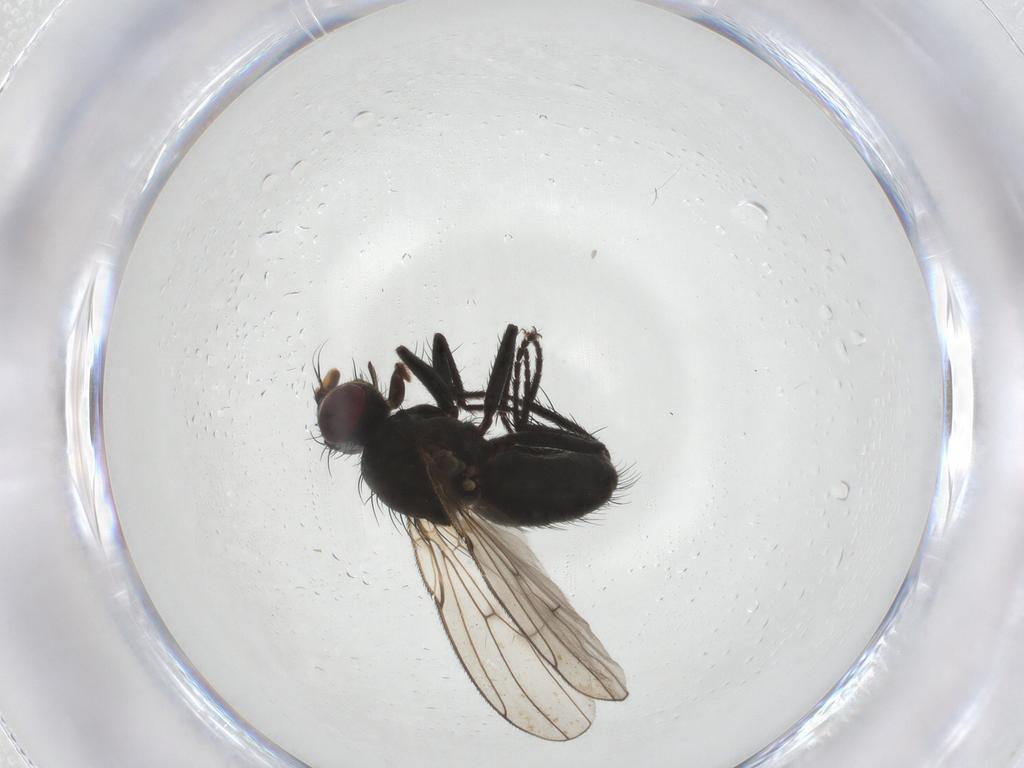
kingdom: Animalia
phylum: Arthropoda
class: Insecta
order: Diptera
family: Muscidae
